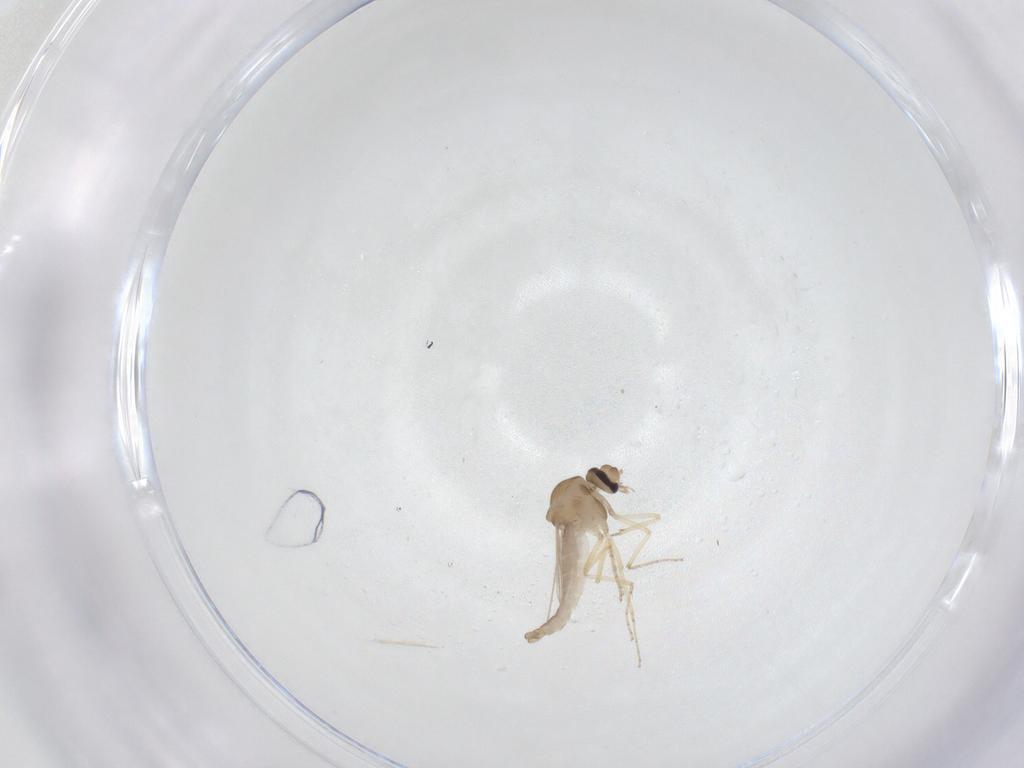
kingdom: Animalia
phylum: Arthropoda
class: Insecta
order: Diptera
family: Ceratopogonidae
